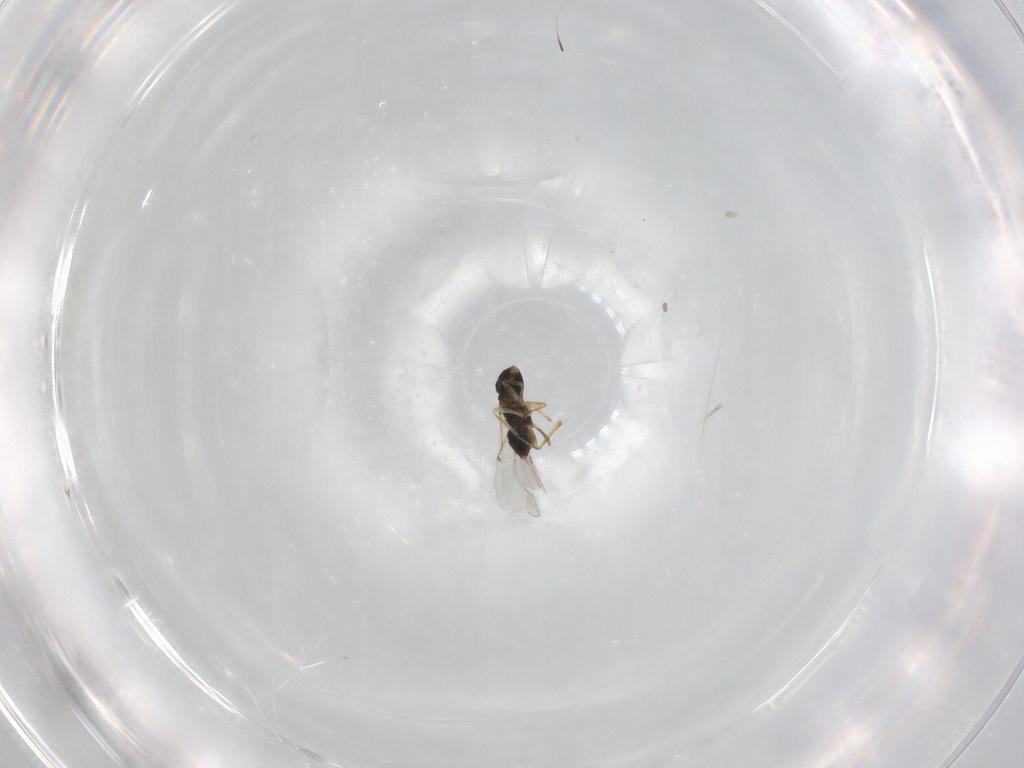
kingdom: Animalia
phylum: Arthropoda
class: Insecta
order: Hymenoptera
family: Encyrtidae
